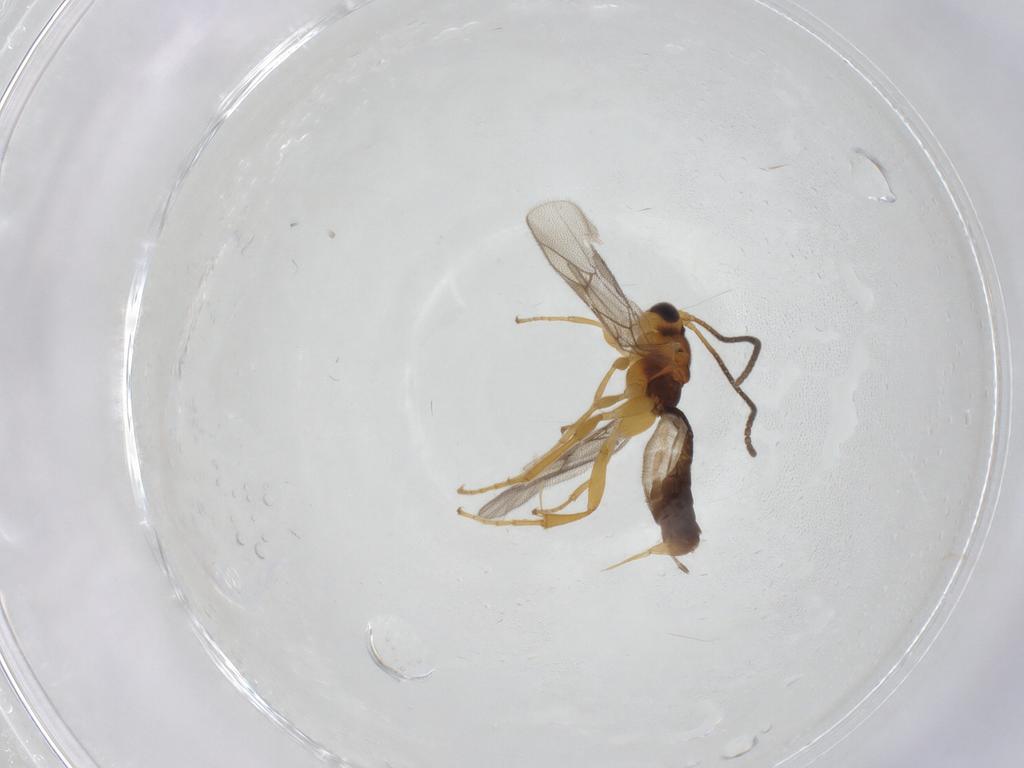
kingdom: Animalia
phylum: Arthropoda
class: Insecta
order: Hymenoptera
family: Ichneumonidae
